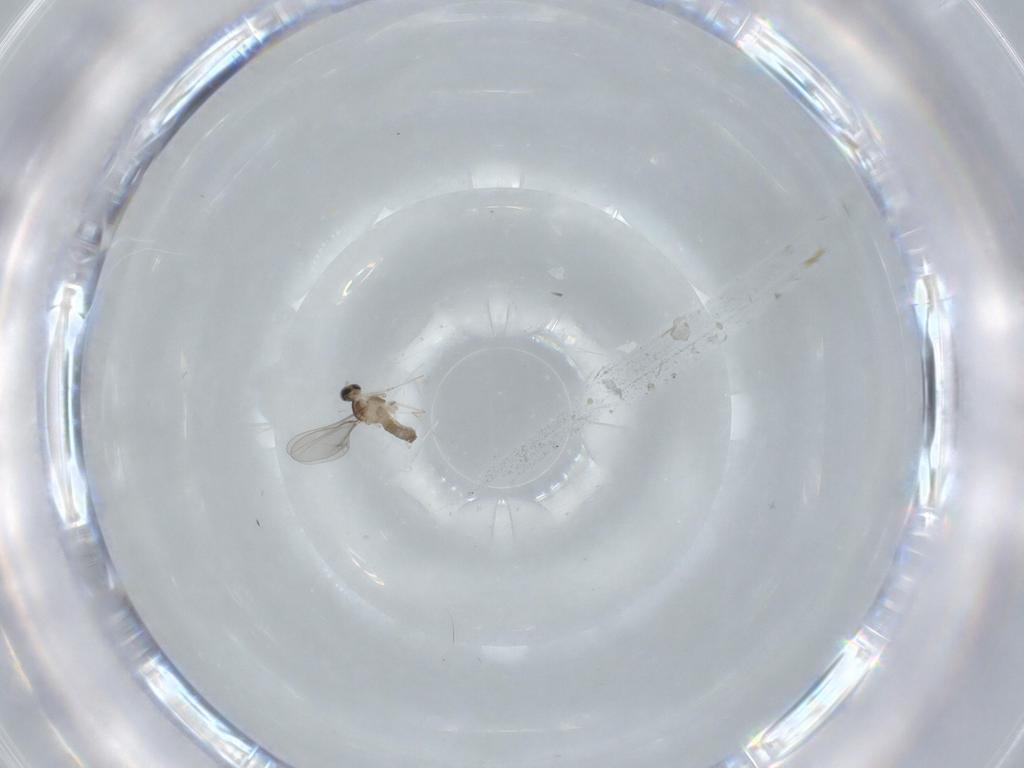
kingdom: Animalia
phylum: Arthropoda
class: Insecta
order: Diptera
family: Cecidomyiidae
